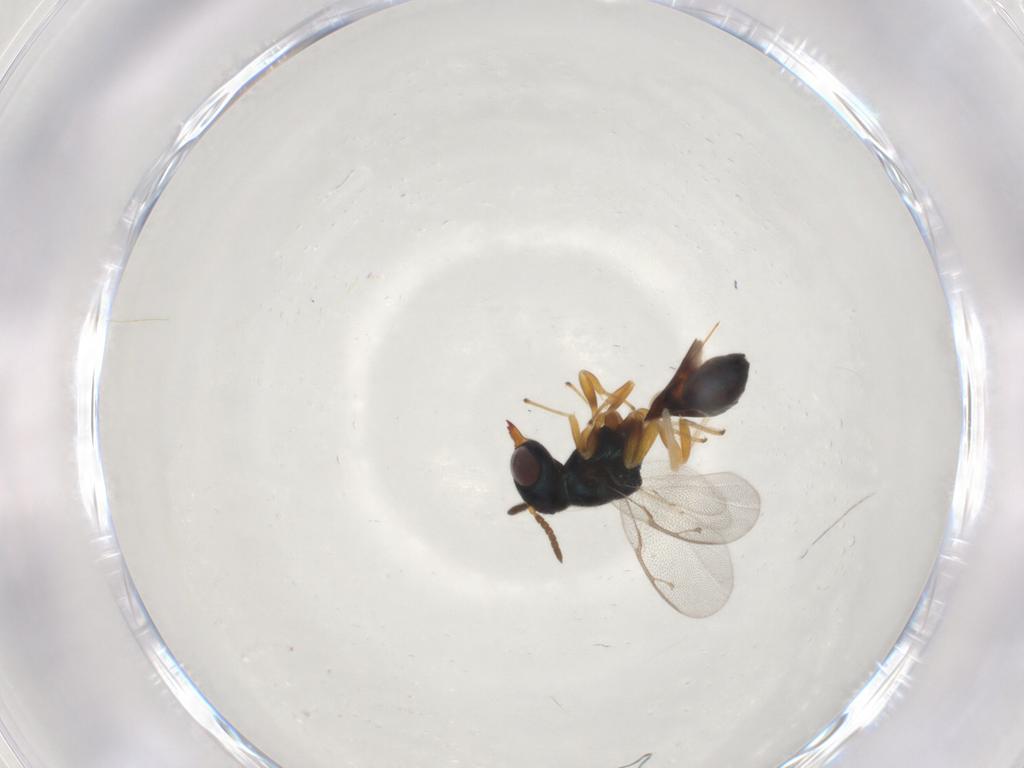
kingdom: Animalia
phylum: Arthropoda
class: Insecta
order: Hymenoptera
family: Pteromalidae
